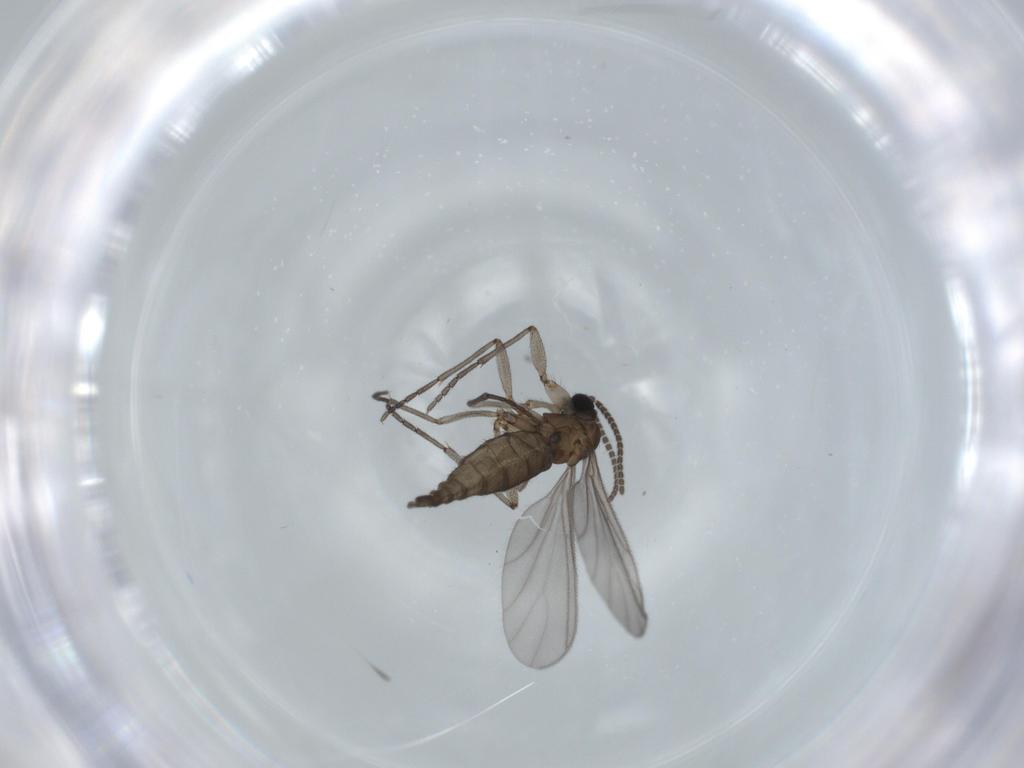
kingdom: Animalia
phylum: Arthropoda
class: Insecta
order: Diptera
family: Sciaridae
